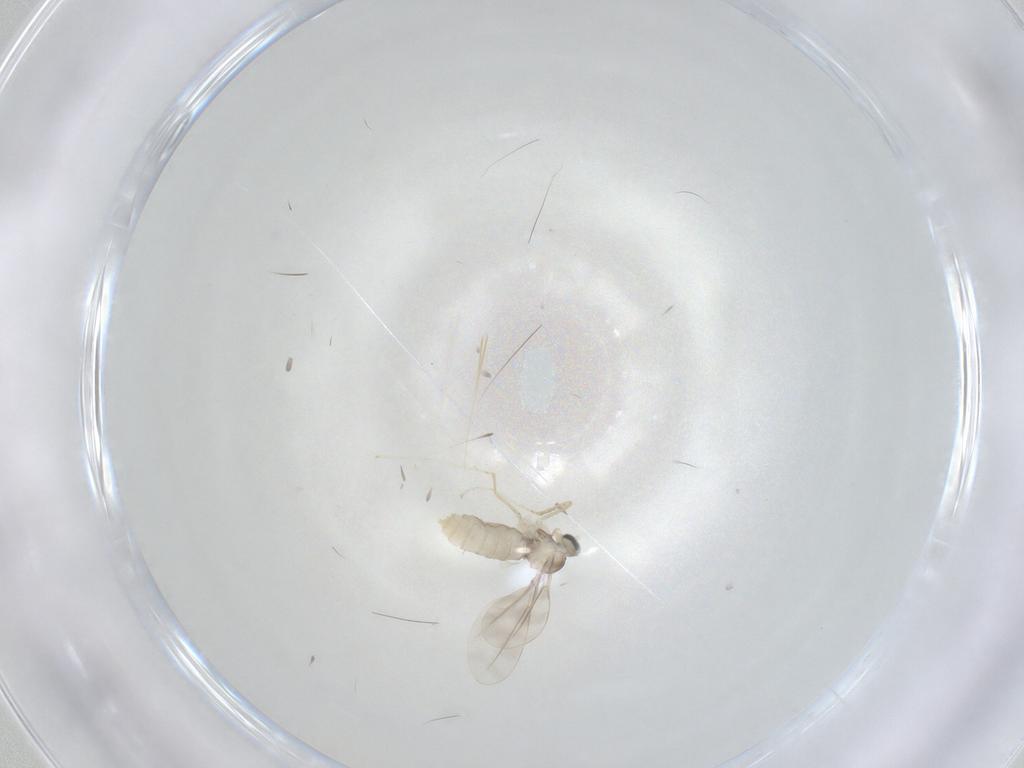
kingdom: Animalia
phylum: Arthropoda
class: Insecta
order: Diptera
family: Cecidomyiidae
